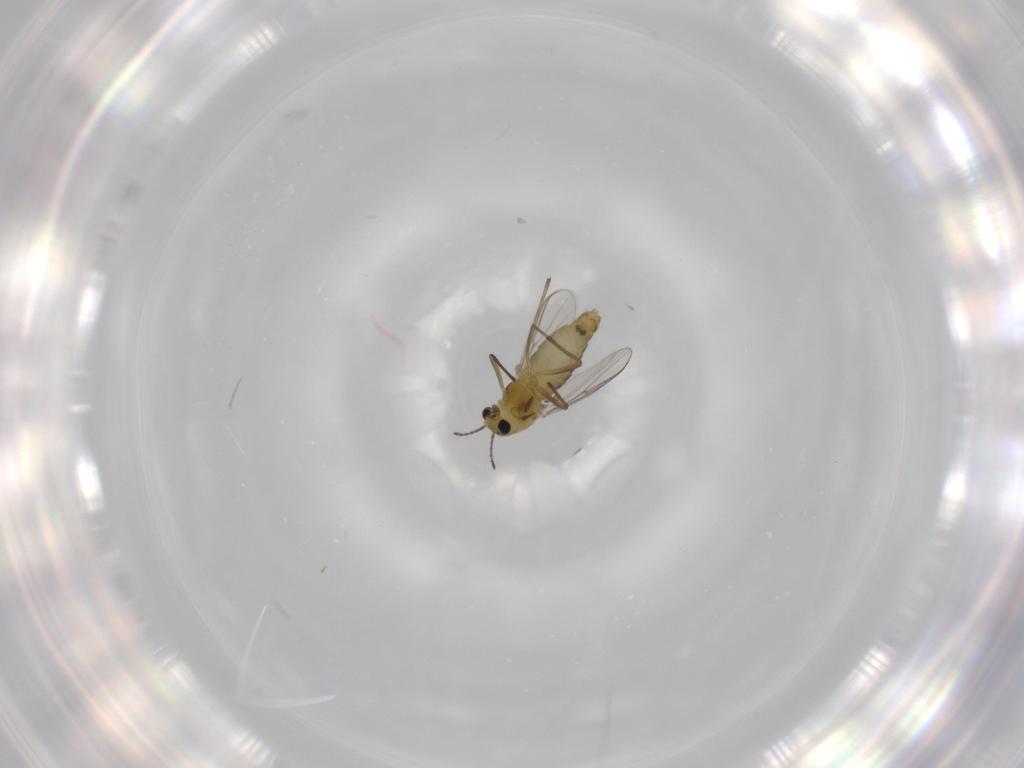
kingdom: Animalia
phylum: Arthropoda
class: Insecta
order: Diptera
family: Chironomidae
